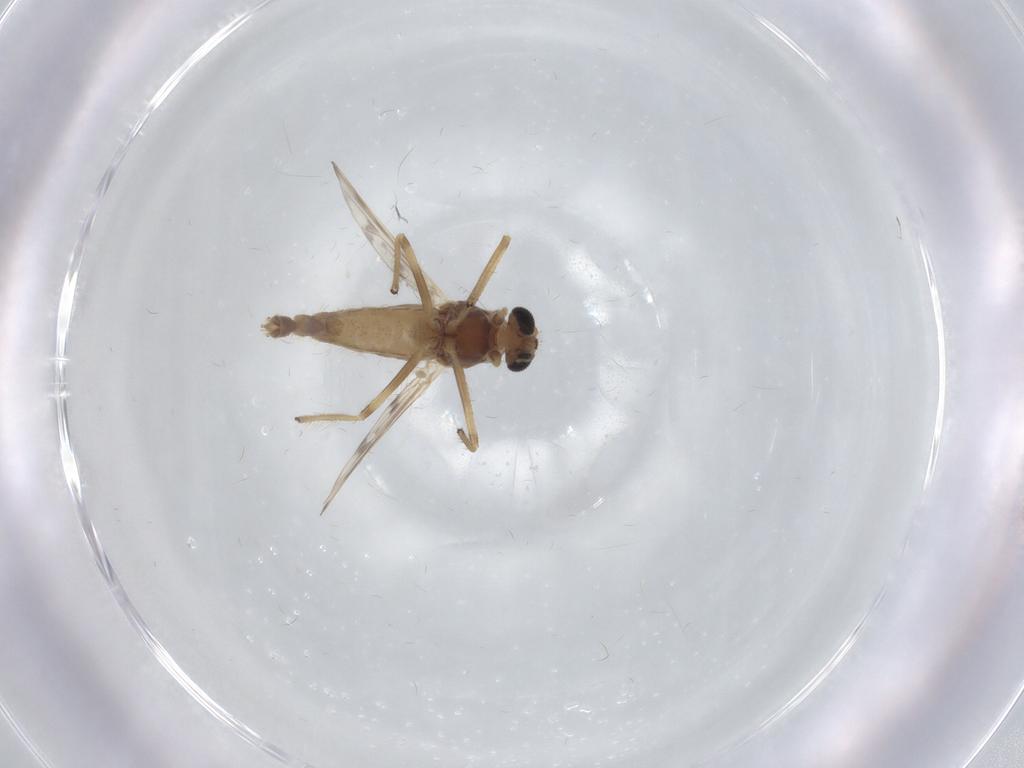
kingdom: Animalia
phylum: Arthropoda
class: Insecta
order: Diptera
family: Chironomidae
